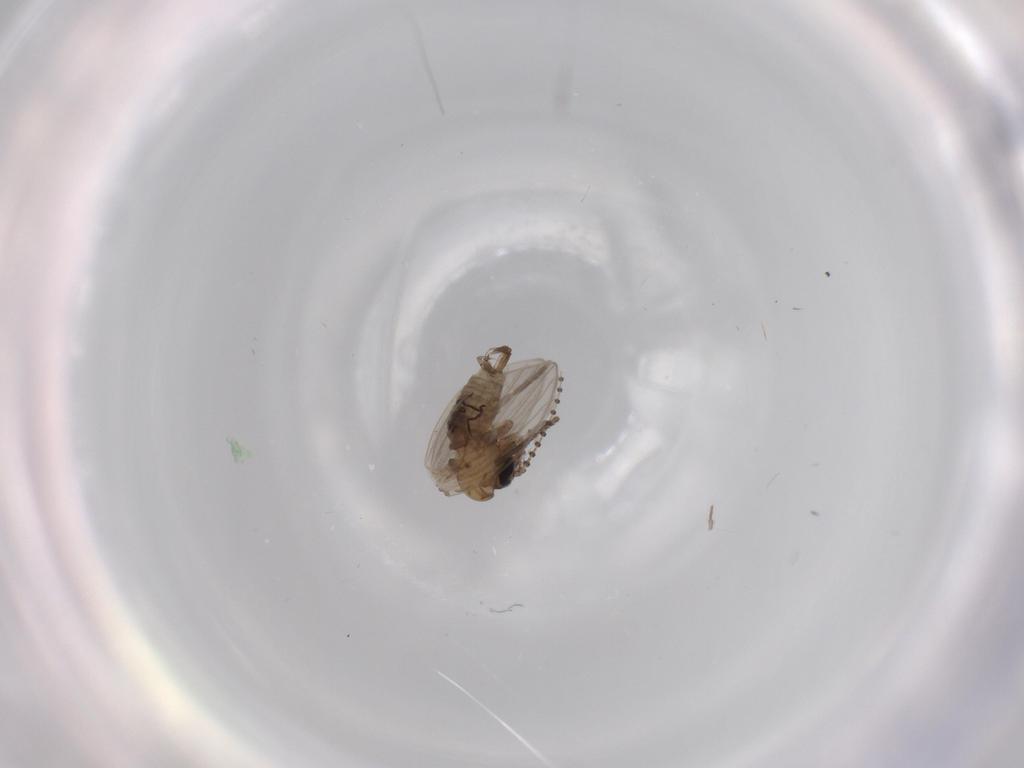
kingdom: Animalia
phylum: Arthropoda
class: Insecta
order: Diptera
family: Psychodidae
